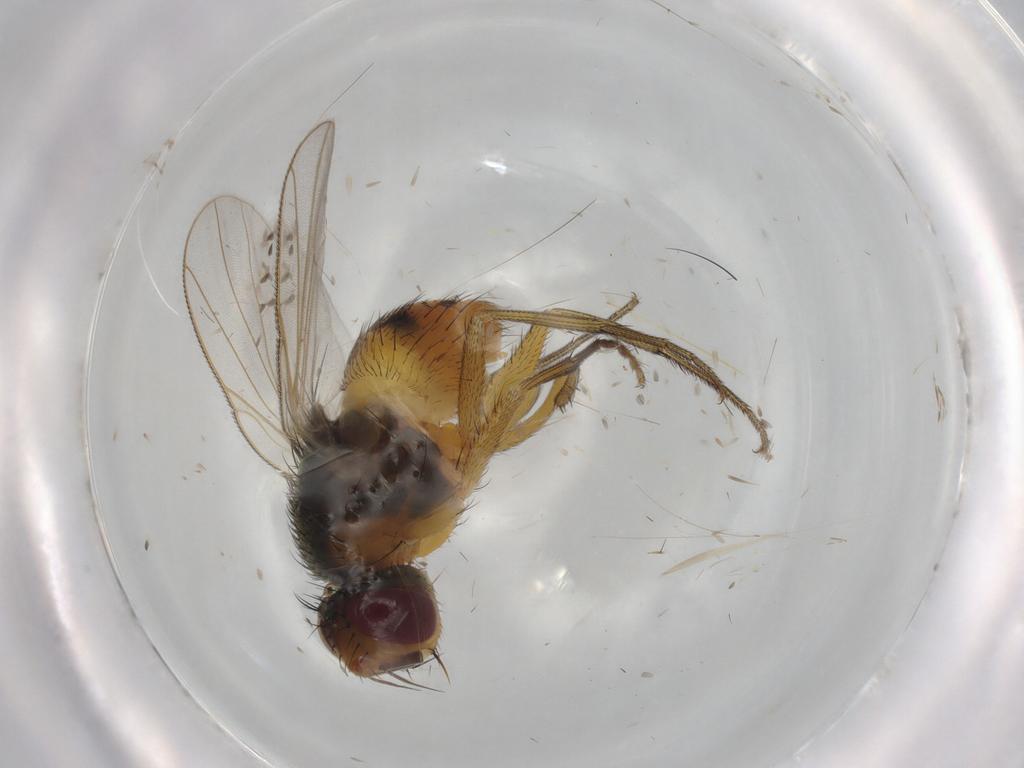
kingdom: Animalia
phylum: Arthropoda
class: Insecta
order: Diptera
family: Muscidae
